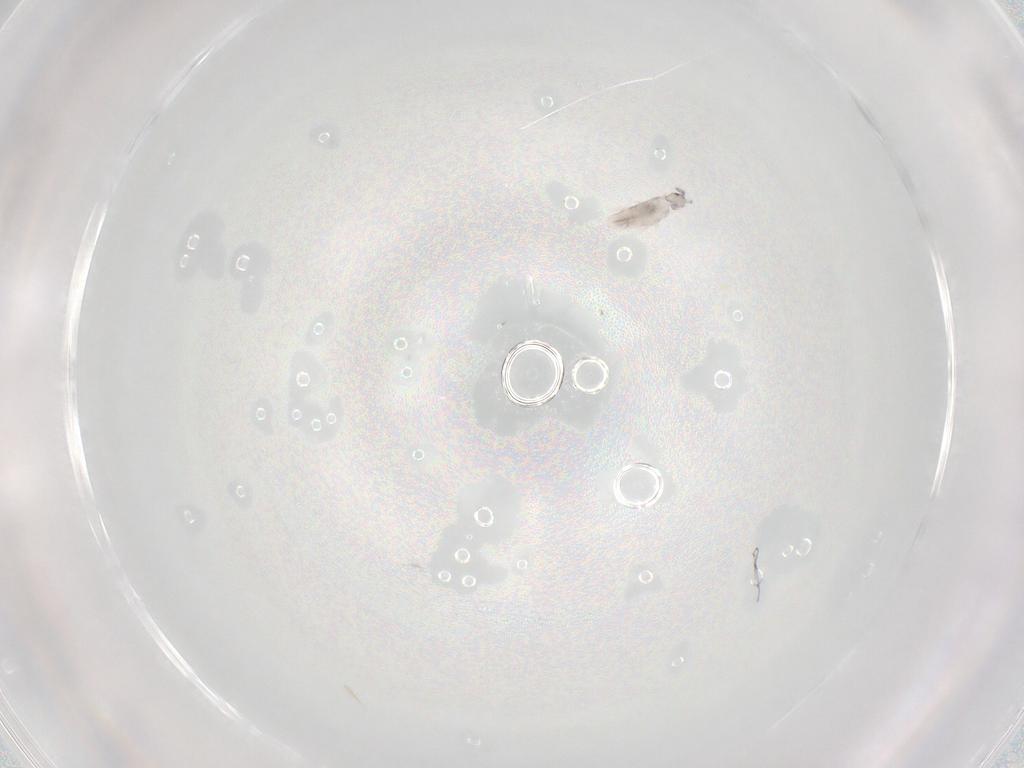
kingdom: Animalia
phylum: Arthropoda
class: Collembola
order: Entomobryomorpha
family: Entomobryidae
